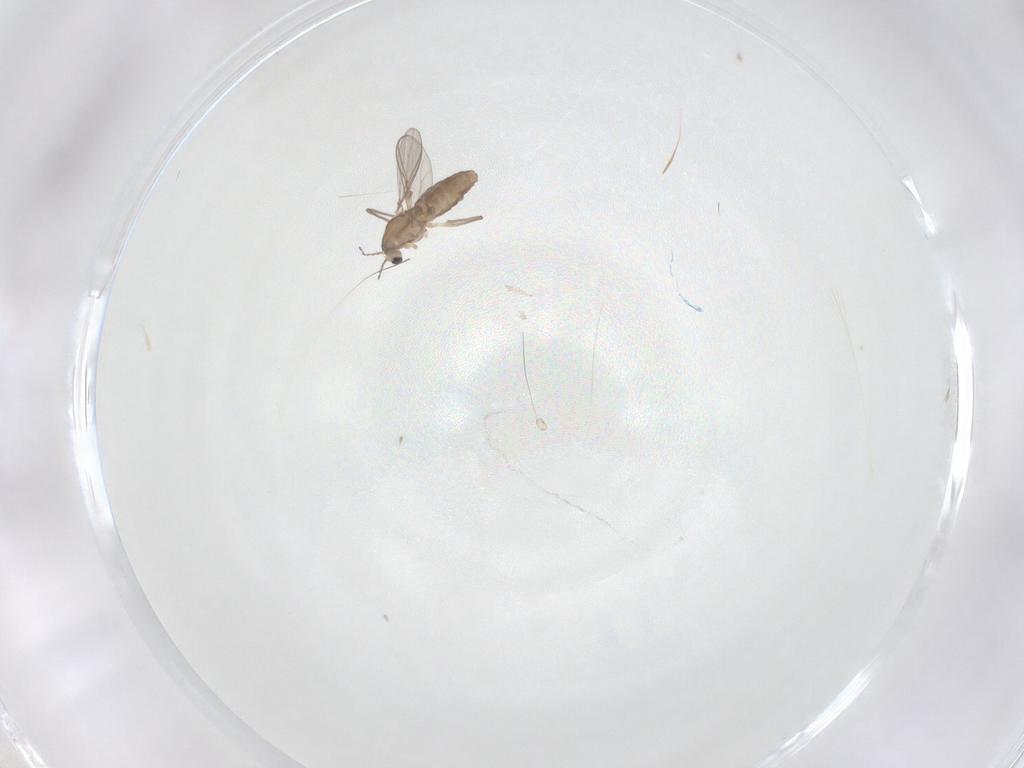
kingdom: Animalia
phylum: Arthropoda
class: Insecta
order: Diptera
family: Chironomidae
